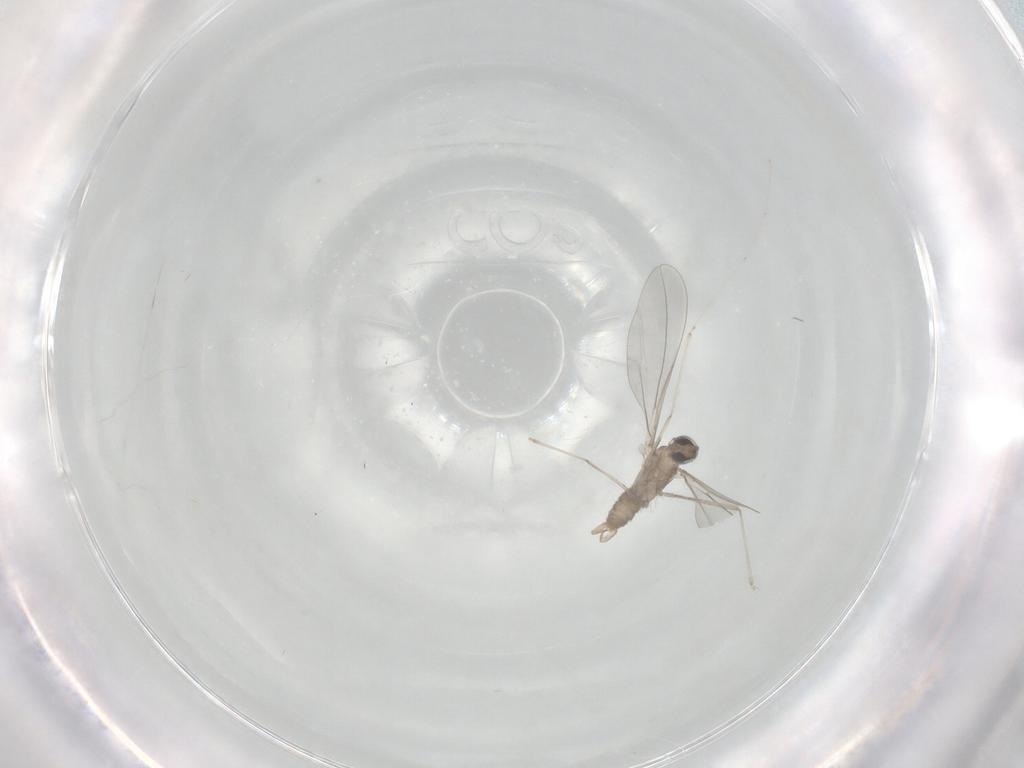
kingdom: Animalia
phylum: Arthropoda
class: Insecta
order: Diptera
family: Cecidomyiidae
